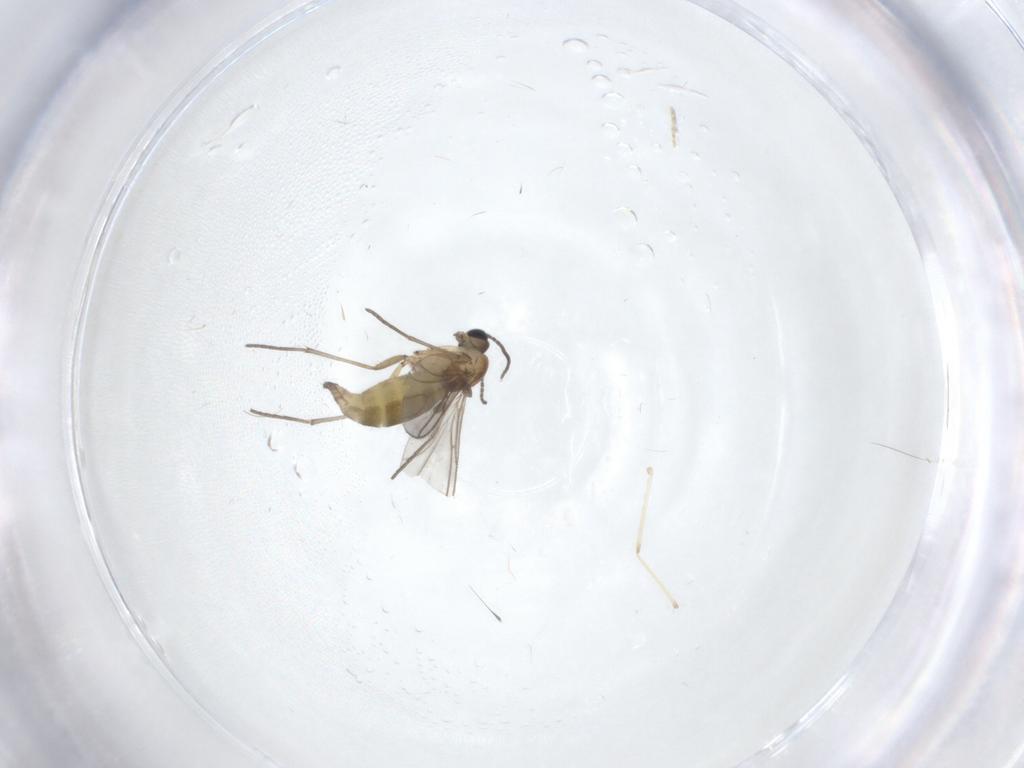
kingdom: Animalia
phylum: Arthropoda
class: Insecta
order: Diptera
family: Sciaridae
